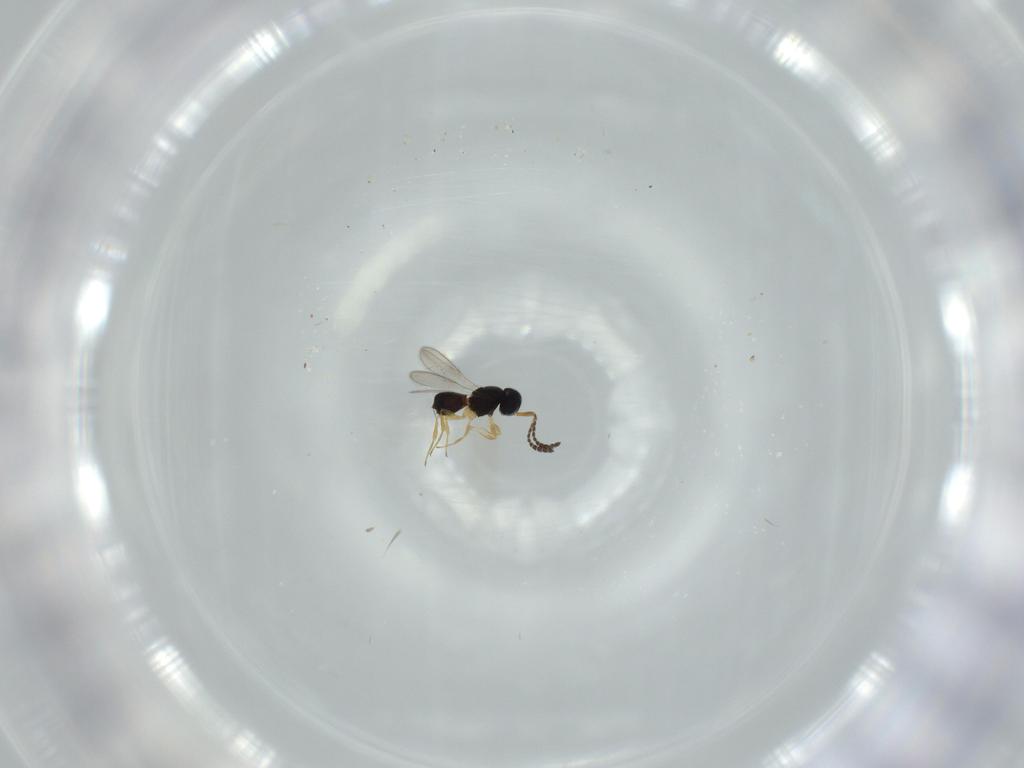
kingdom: Animalia
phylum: Arthropoda
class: Insecta
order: Hymenoptera
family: Scelionidae
